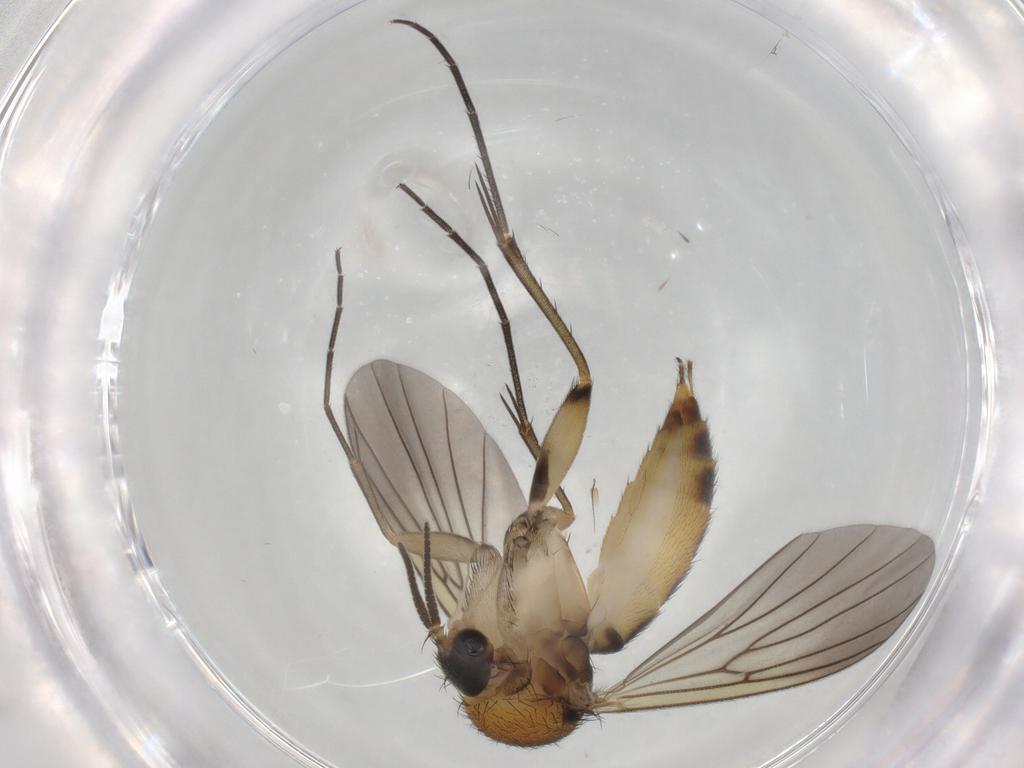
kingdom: Animalia
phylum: Arthropoda
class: Insecta
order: Diptera
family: Mycetophilidae
